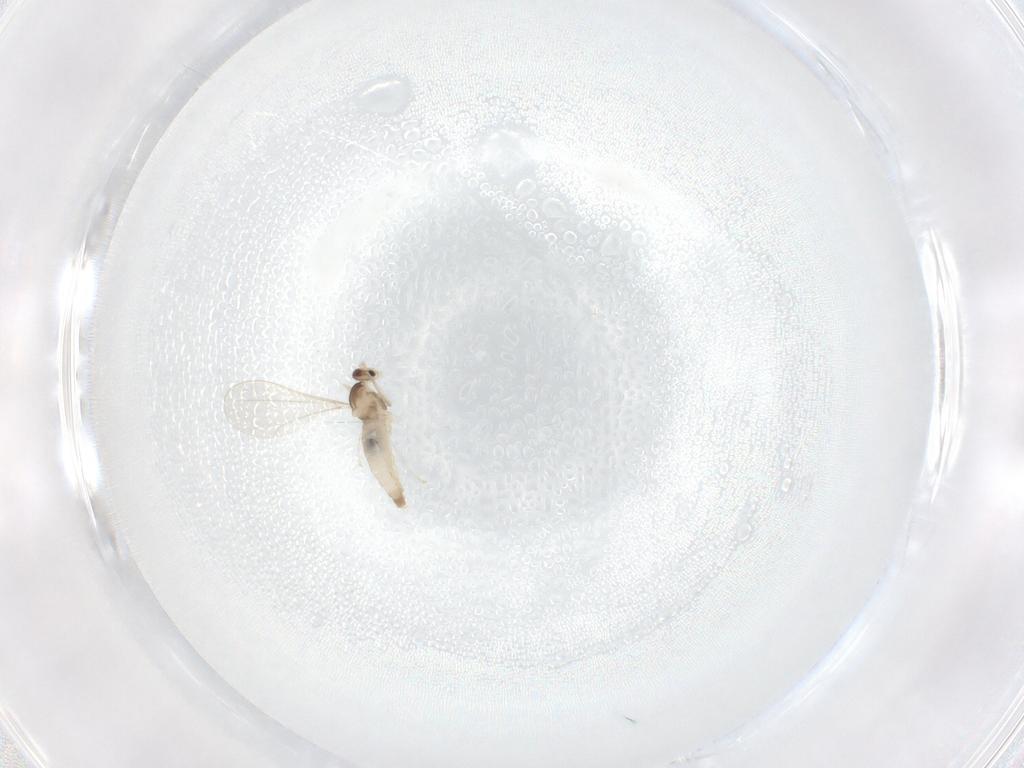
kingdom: Animalia
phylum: Arthropoda
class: Insecta
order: Diptera
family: Cecidomyiidae
